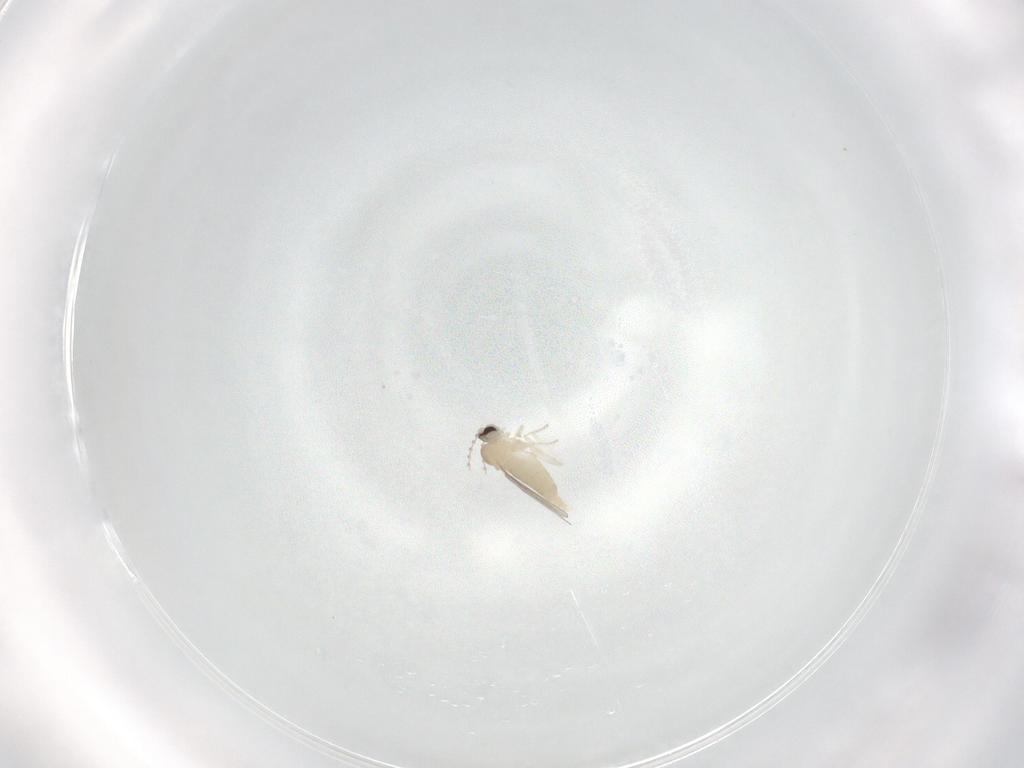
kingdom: Animalia
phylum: Arthropoda
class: Insecta
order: Diptera
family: Cecidomyiidae
